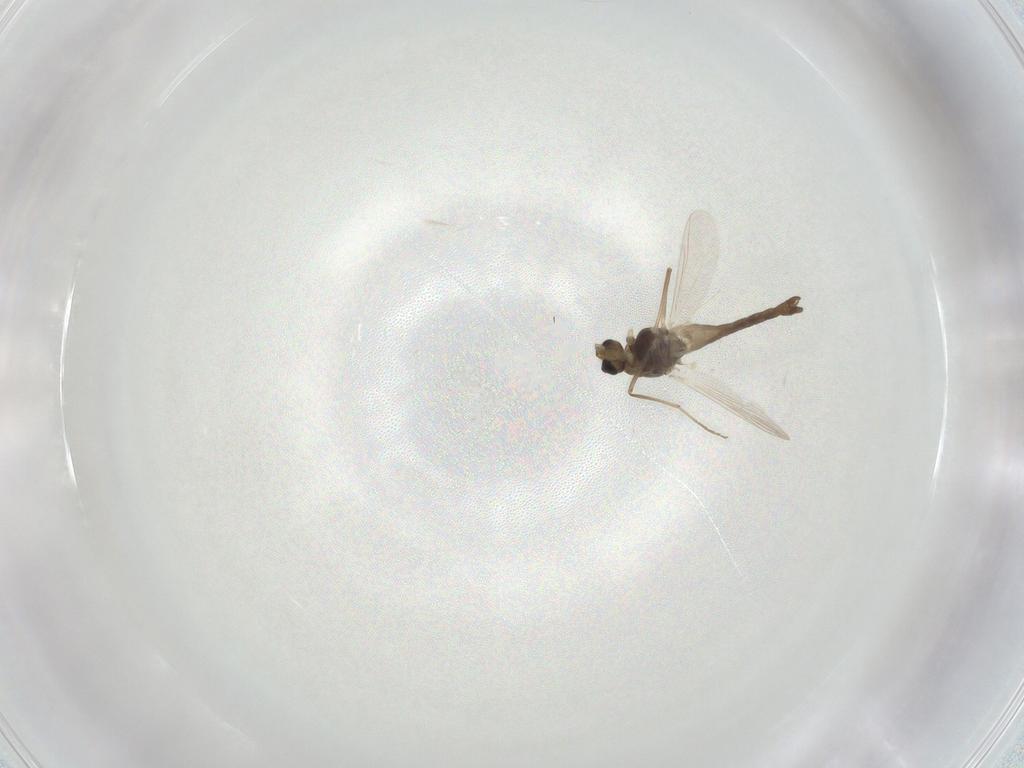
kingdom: Animalia
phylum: Arthropoda
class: Insecta
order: Diptera
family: Chironomidae
